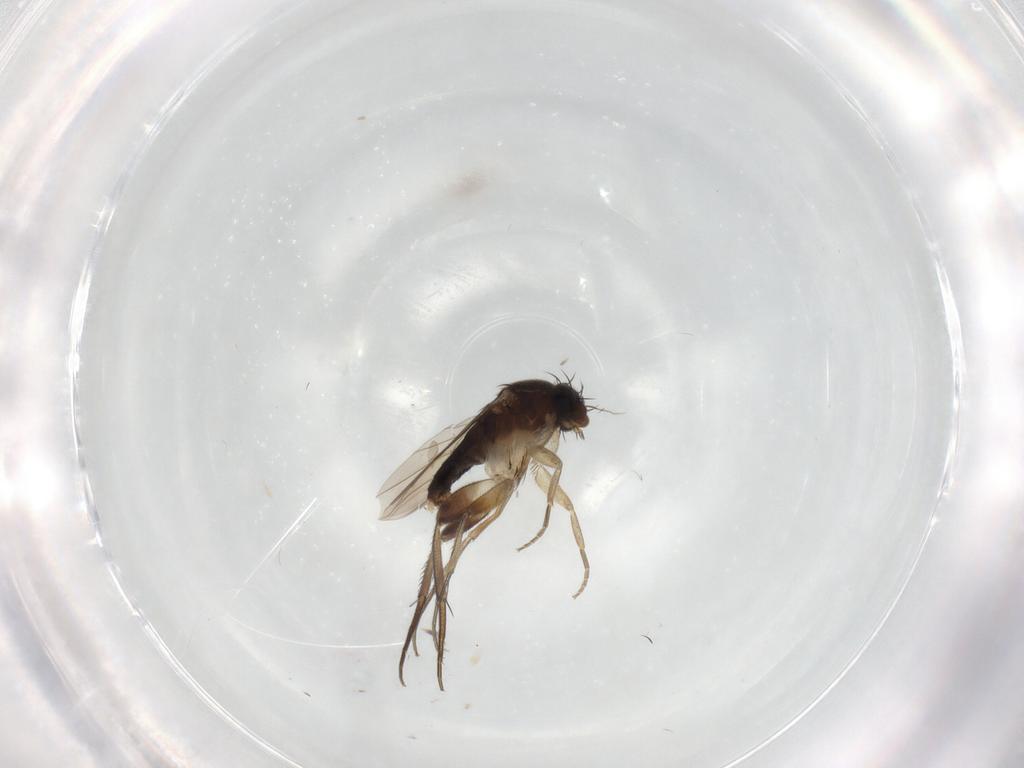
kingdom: Animalia
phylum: Arthropoda
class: Insecta
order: Diptera
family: Phoridae
